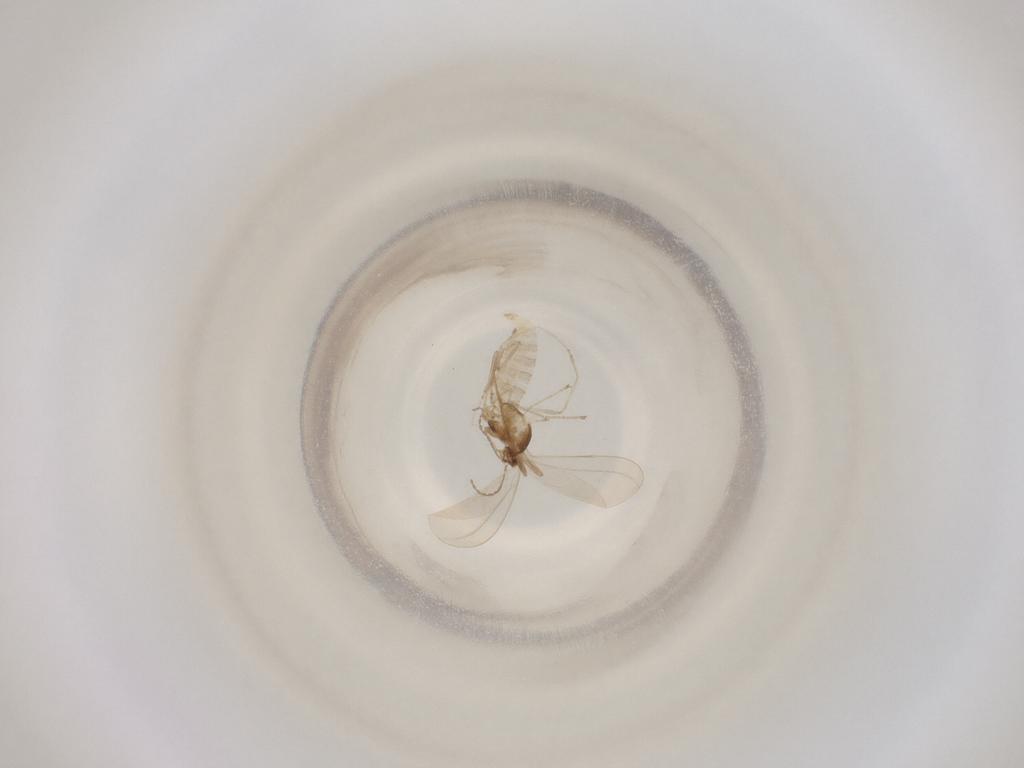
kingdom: Animalia
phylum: Arthropoda
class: Insecta
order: Diptera
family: Cecidomyiidae
